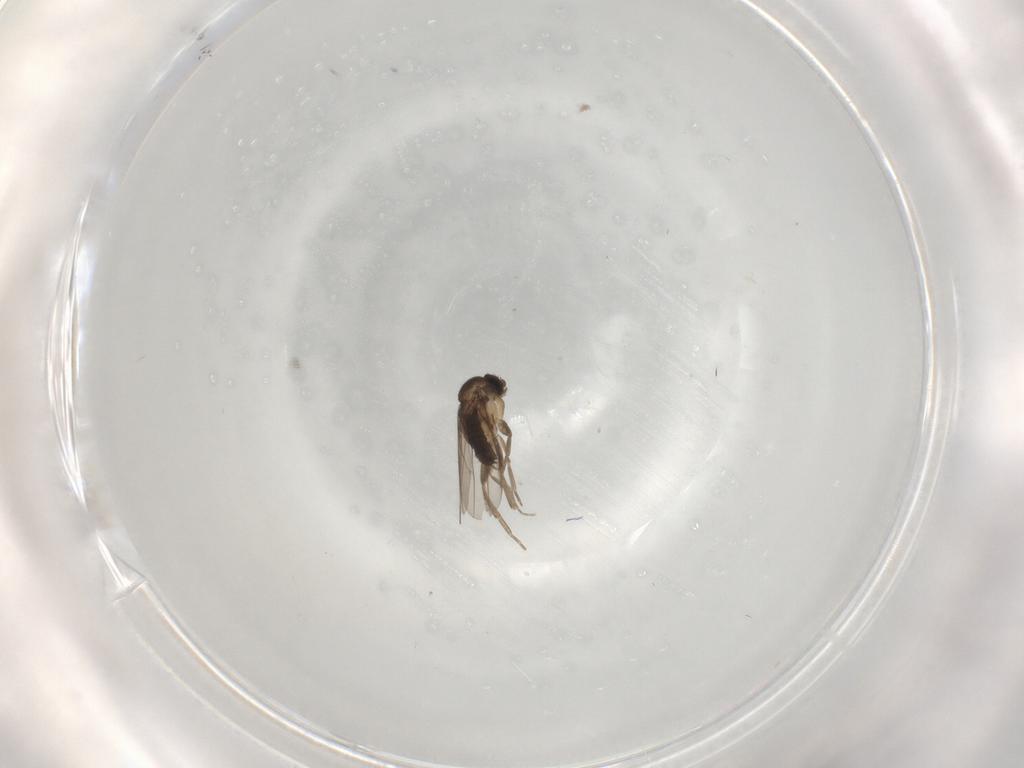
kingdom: Animalia
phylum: Arthropoda
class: Insecta
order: Diptera
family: Phoridae
